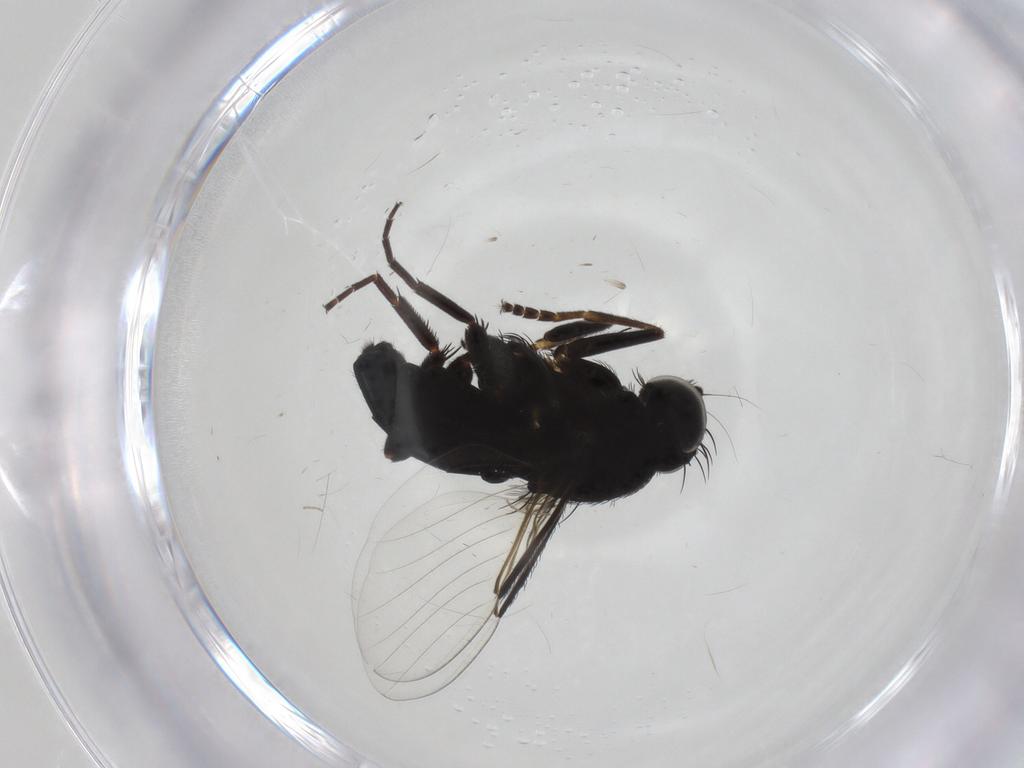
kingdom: Animalia
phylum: Arthropoda
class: Insecta
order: Diptera
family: Phoridae
